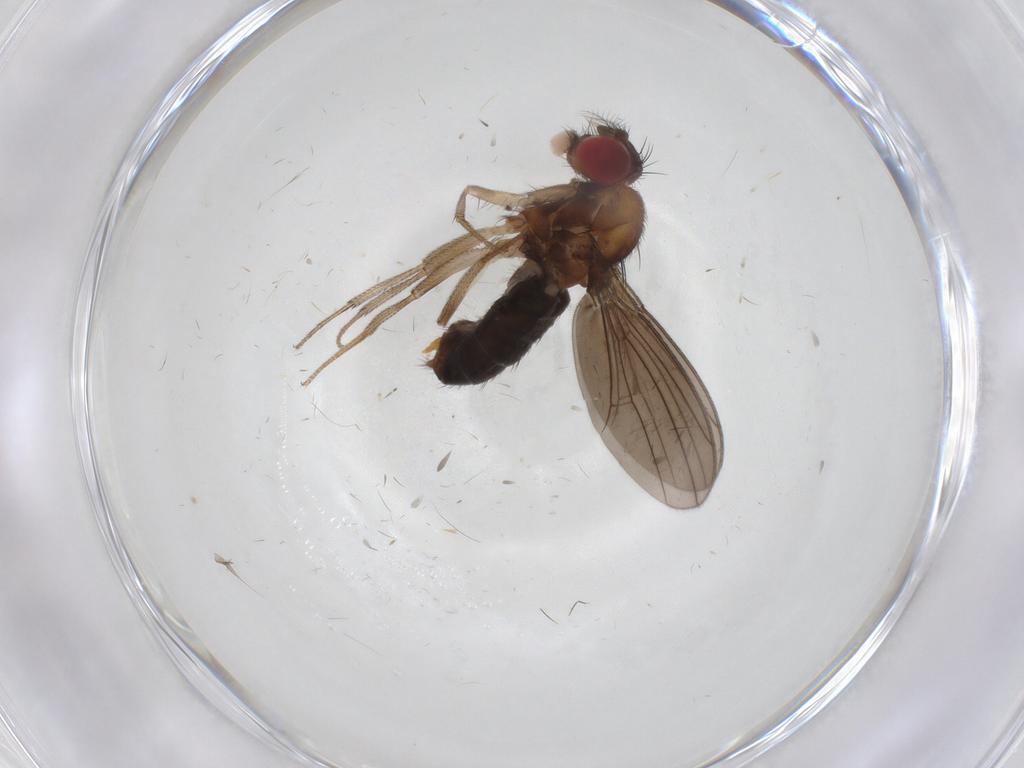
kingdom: Animalia
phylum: Arthropoda
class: Insecta
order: Diptera
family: Drosophilidae
